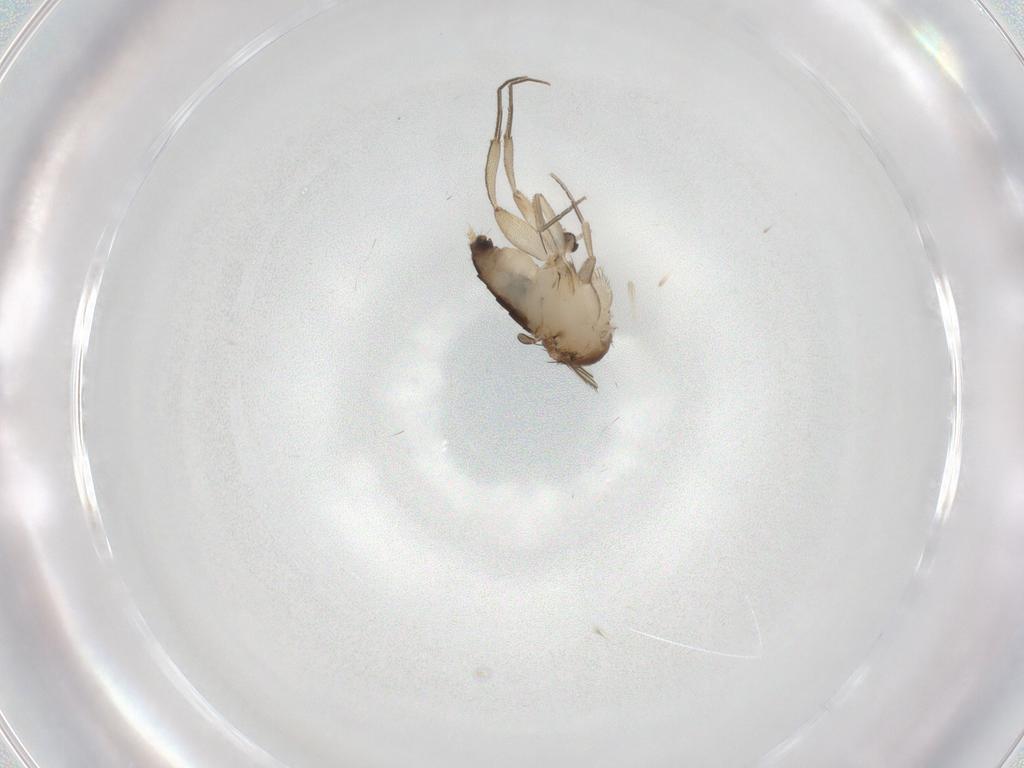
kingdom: Animalia
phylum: Arthropoda
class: Insecta
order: Diptera
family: Phoridae
